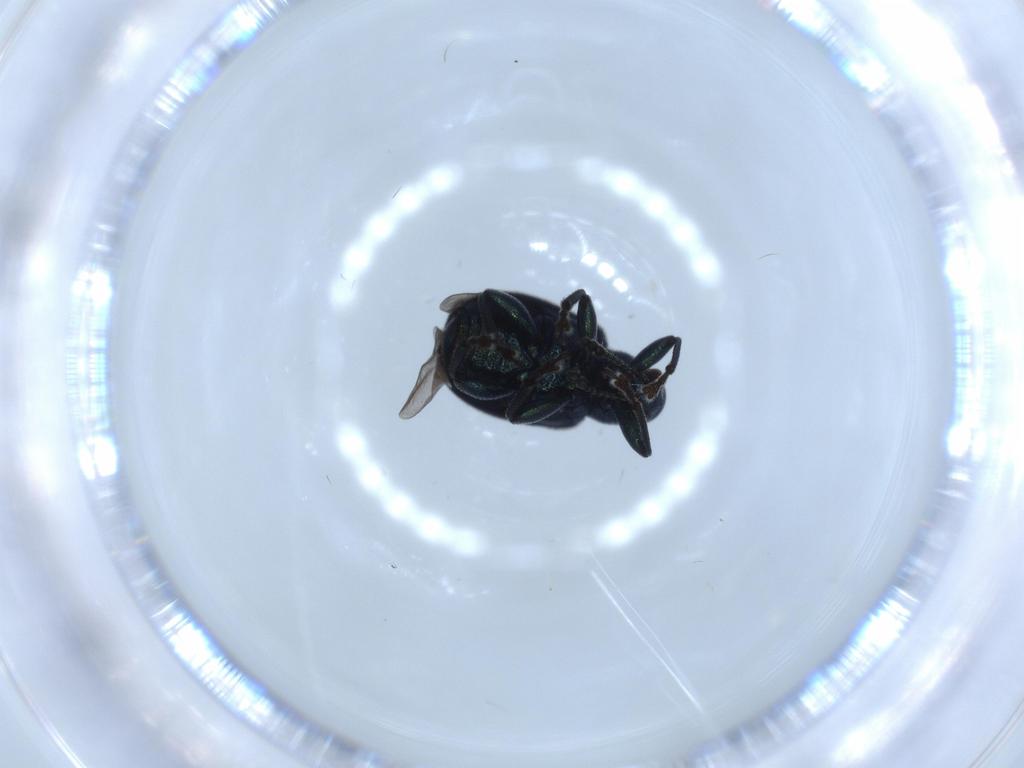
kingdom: Animalia
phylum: Arthropoda
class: Insecta
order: Coleoptera
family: Attelabidae
